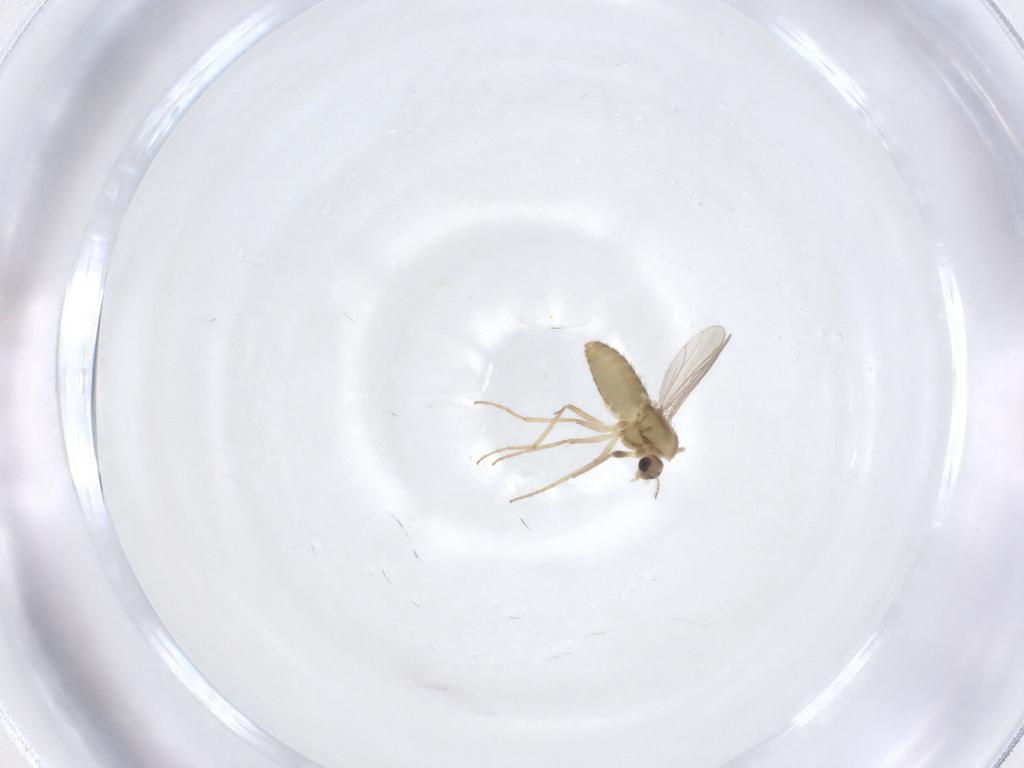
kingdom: Animalia
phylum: Arthropoda
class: Insecta
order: Diptera
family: Chironomidae
